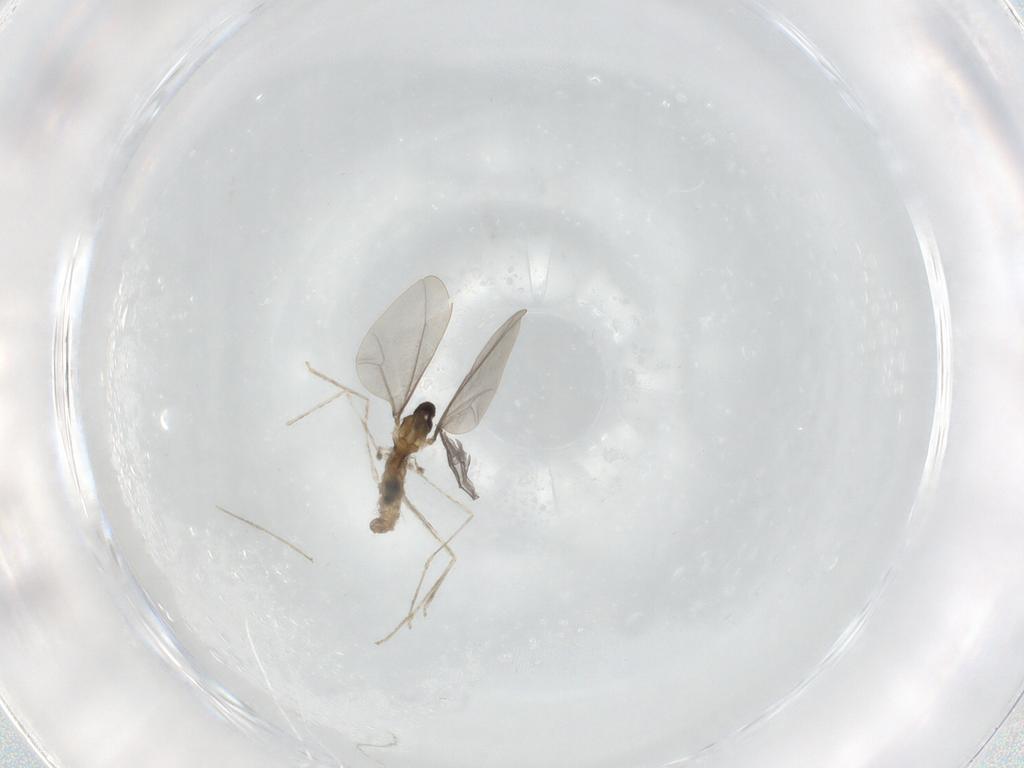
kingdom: Animalia
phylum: Arthropoda
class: Insecta
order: Diptera
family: Cecidomyiidae
